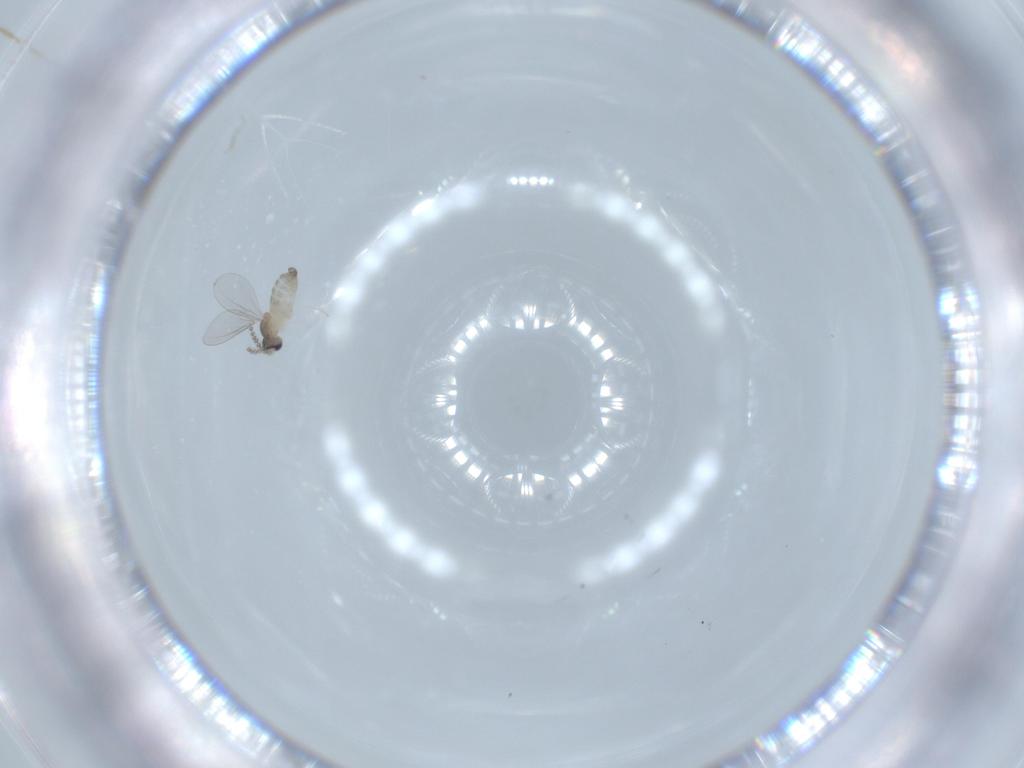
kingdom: Animalia
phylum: Arthropoda
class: Insecta
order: Diptera
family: Cecidomyiidae
